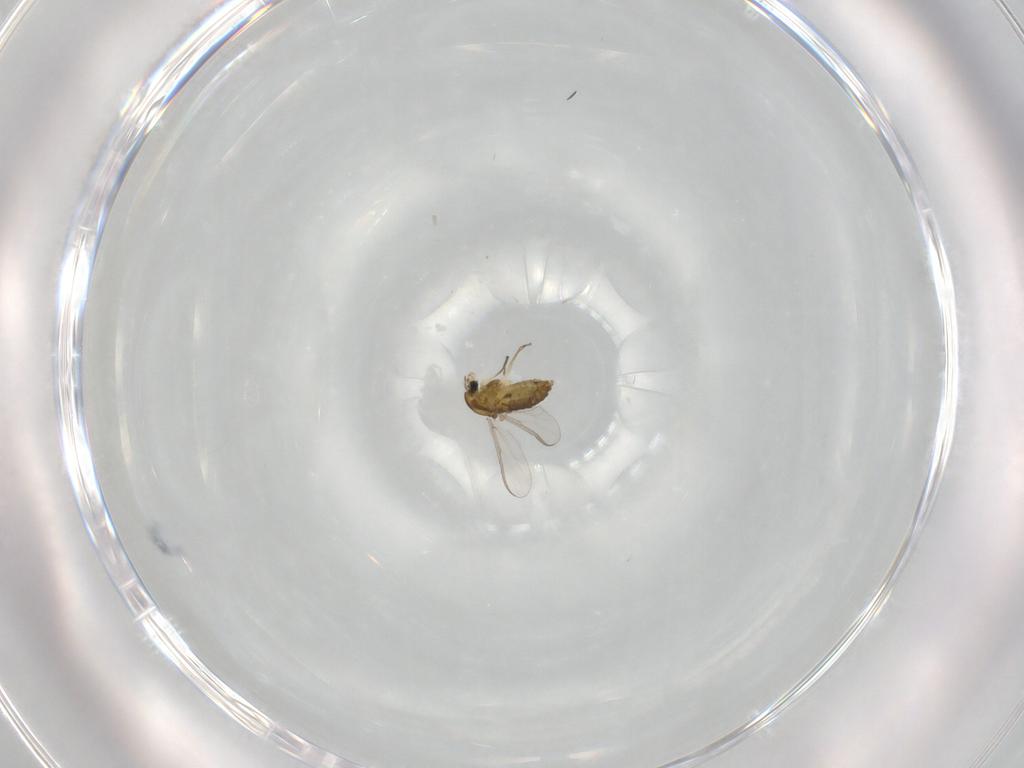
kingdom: Animalia
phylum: Arthropoda
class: Insecta
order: Diptera
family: Chironomidae
